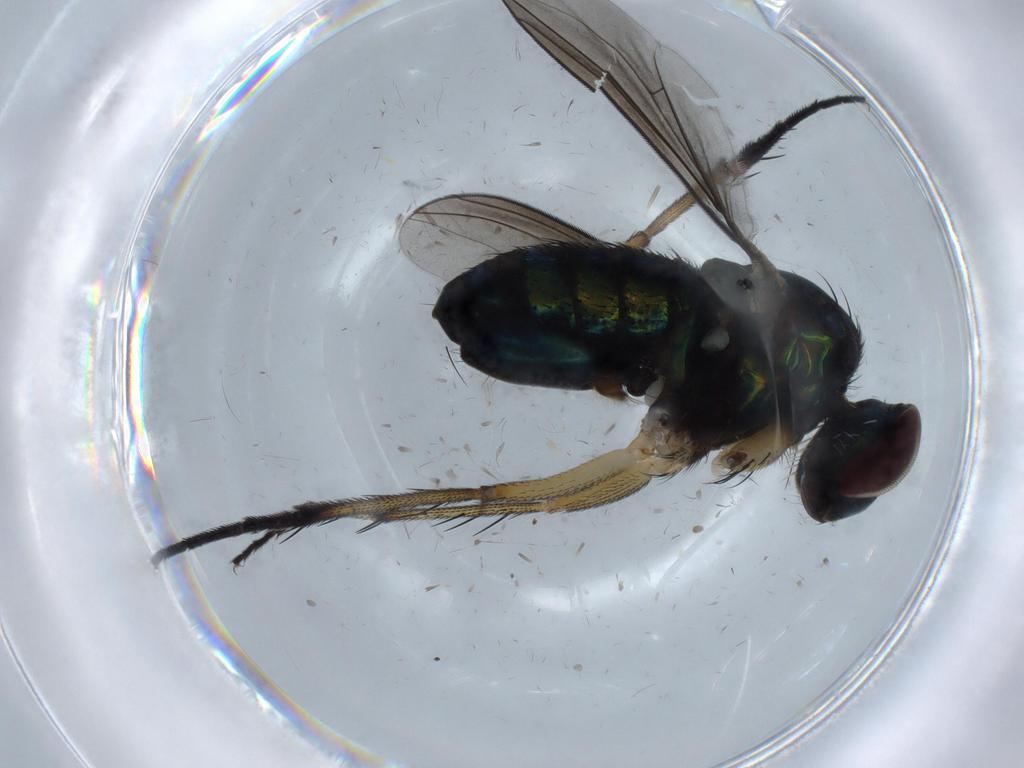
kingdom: Animalia
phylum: Arthropoda
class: Insecta
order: Diptera
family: Dolichopodidae
